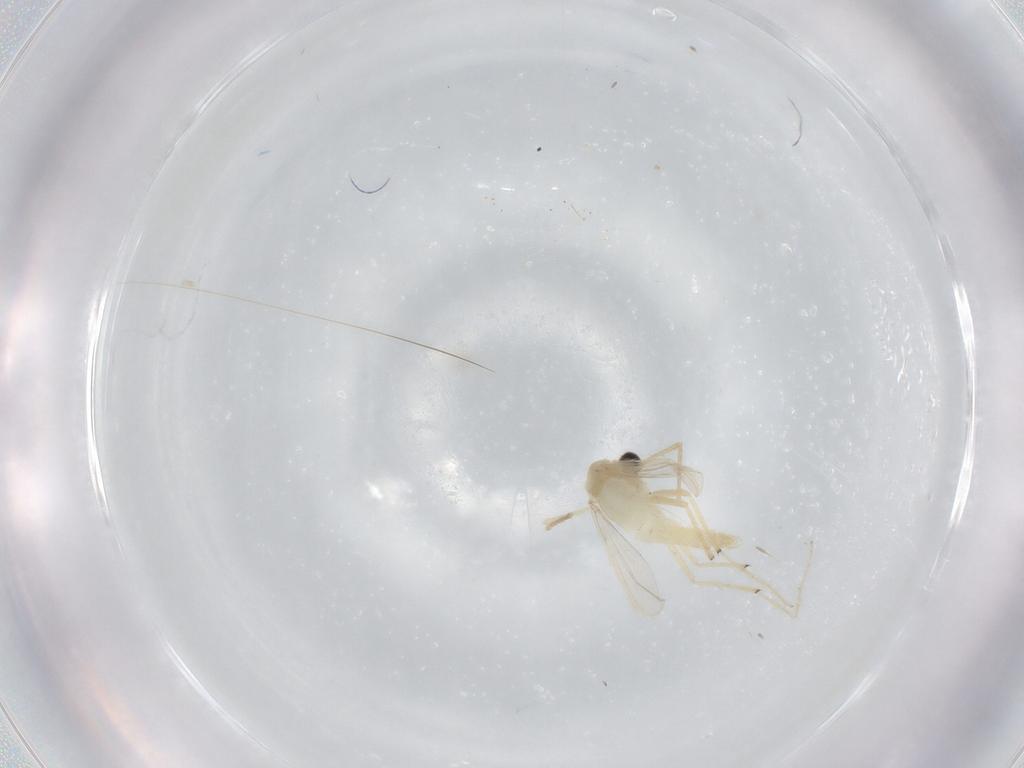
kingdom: Animalia
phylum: Arthropoda
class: Insecta
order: Diptera
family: Chironomidae
